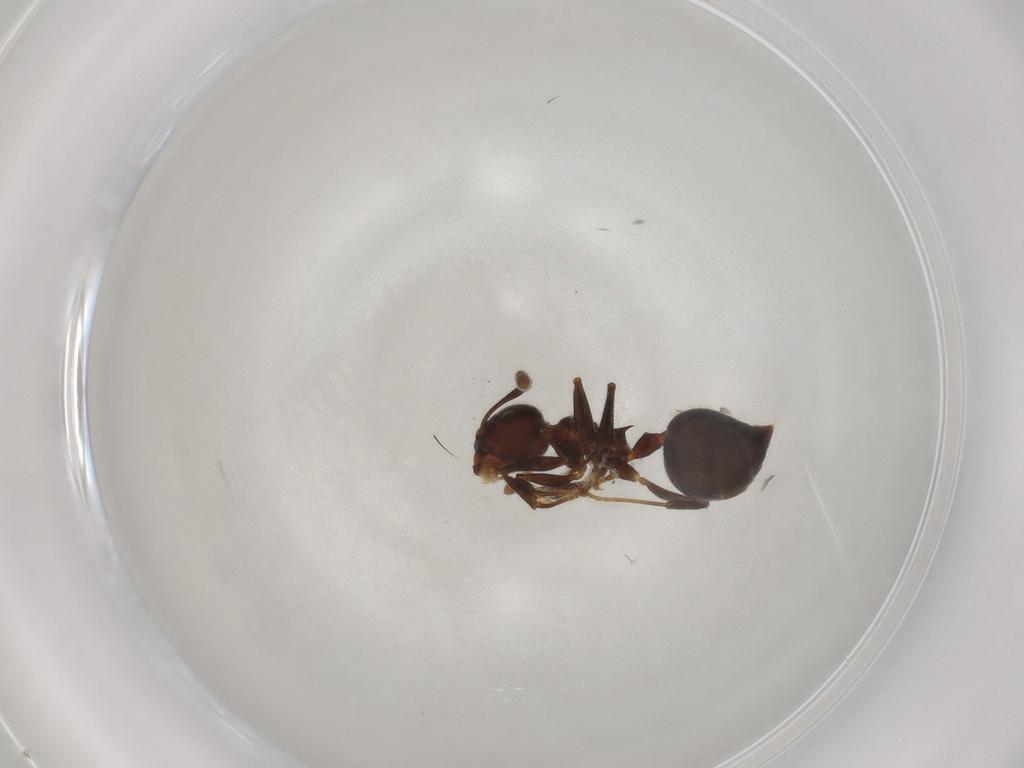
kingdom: Animalia
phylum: Arthropoda
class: Insecta
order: Hymenoptera
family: Formicidae
